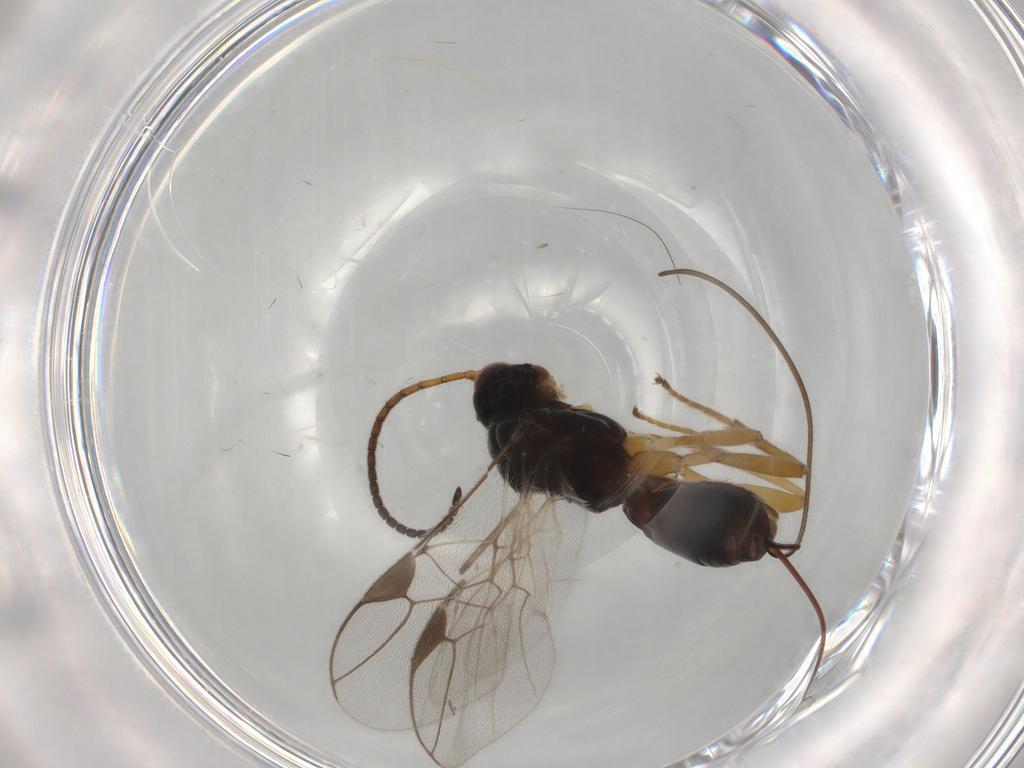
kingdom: Animalia
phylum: Arthropoda
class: Insecta
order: Hymenoptera
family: Braconidae
